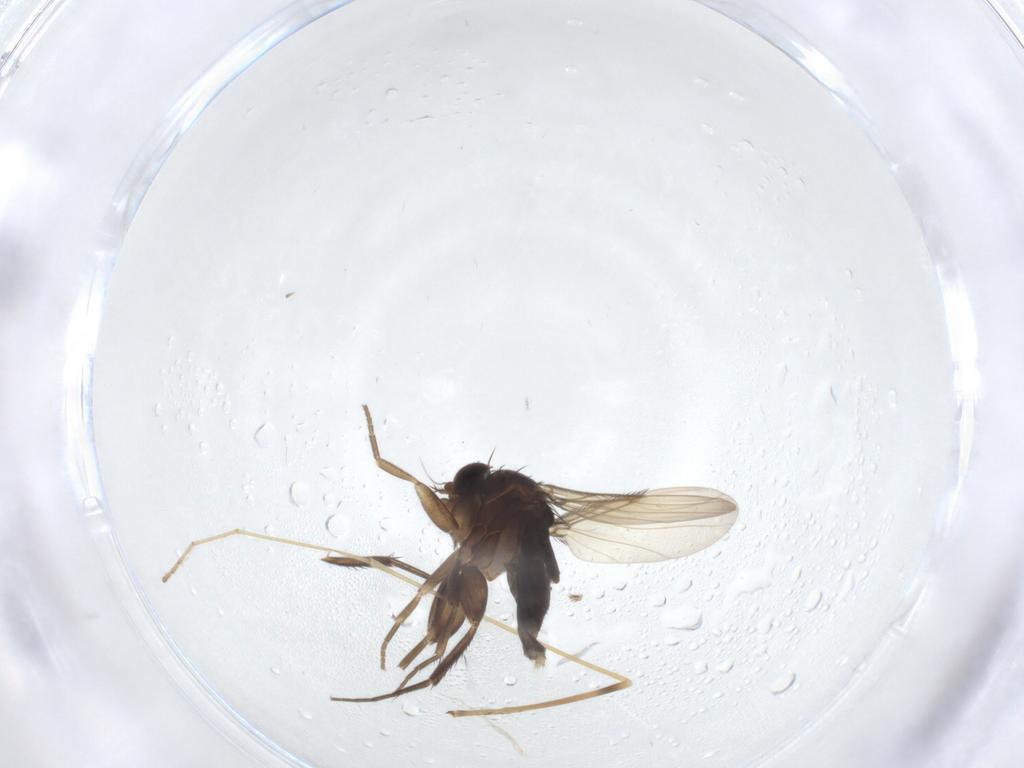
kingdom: Animalia
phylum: Arthropoda
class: Insecta
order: Diptera
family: Phoridae
